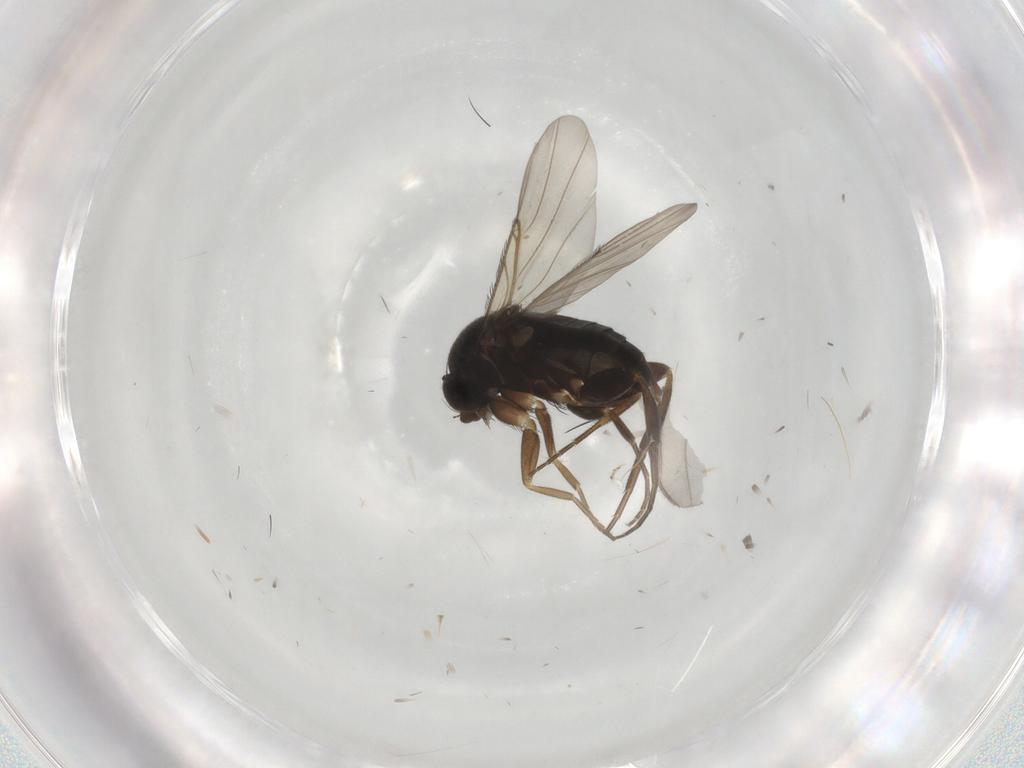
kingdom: Animalia
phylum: Arthropoda
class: Insecta
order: Diptera
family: Phoridae
